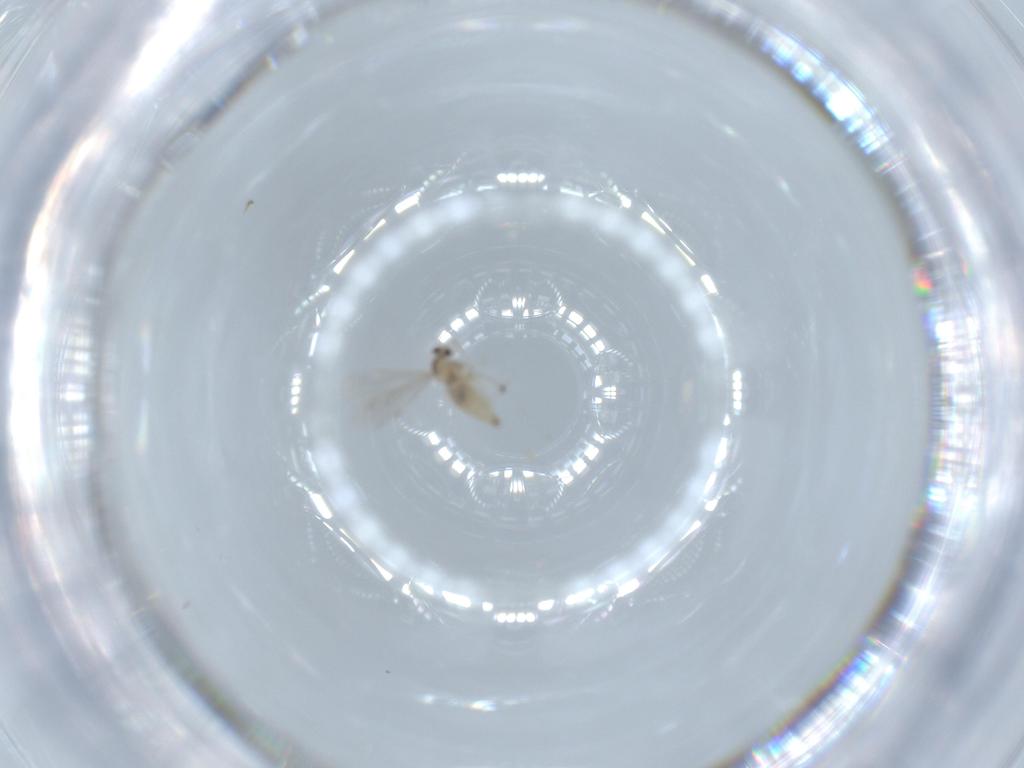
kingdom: Animalia
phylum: Arthropoda
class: Insecta
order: Diptera
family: Cecidomyiidae
